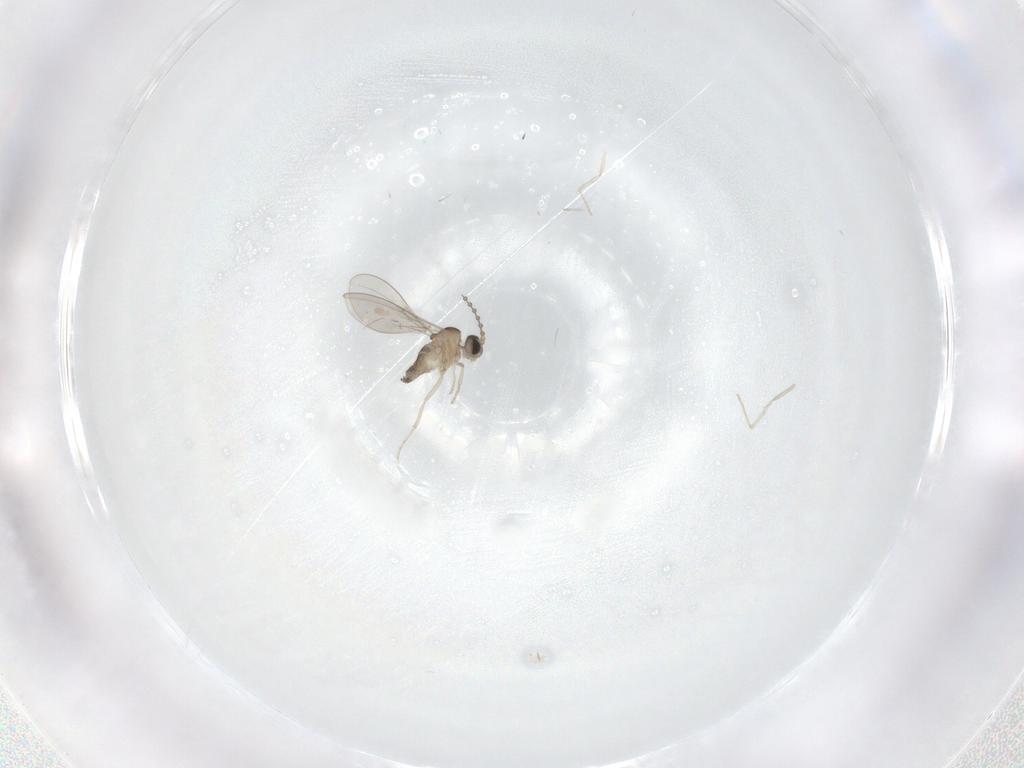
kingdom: Animalia
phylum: Arthropoda
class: Insecta
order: Diptera
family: Cecidomyiidae
